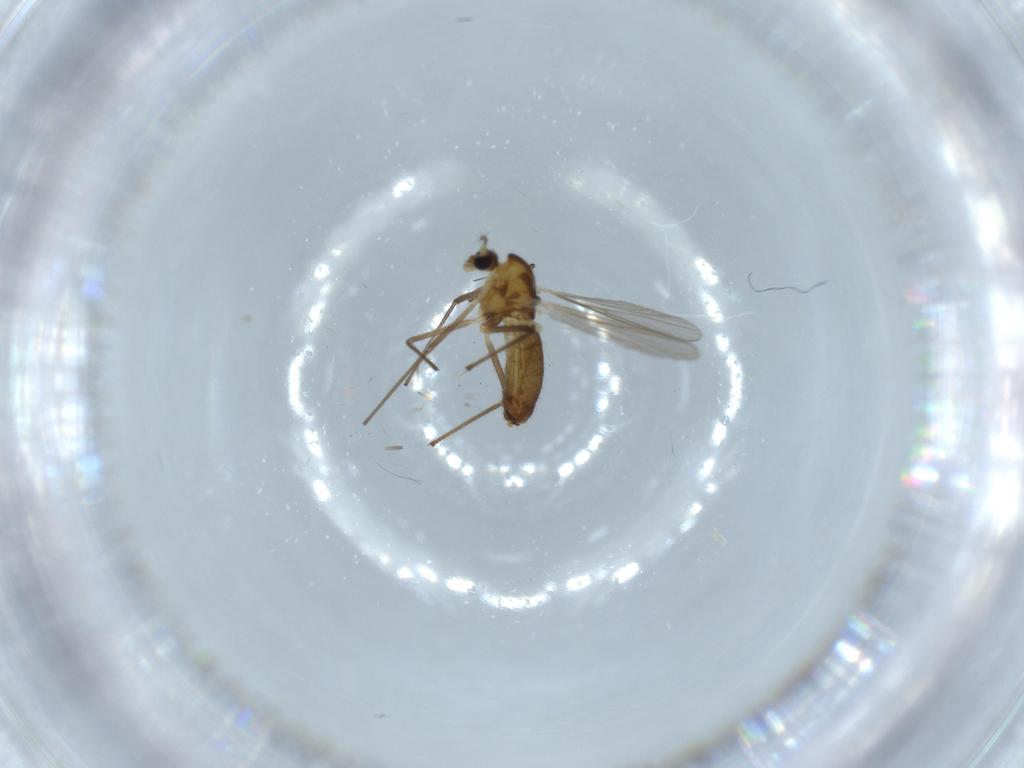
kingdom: Animalia
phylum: Arthropoda
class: Insecta
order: Diptera
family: Chironomidae
